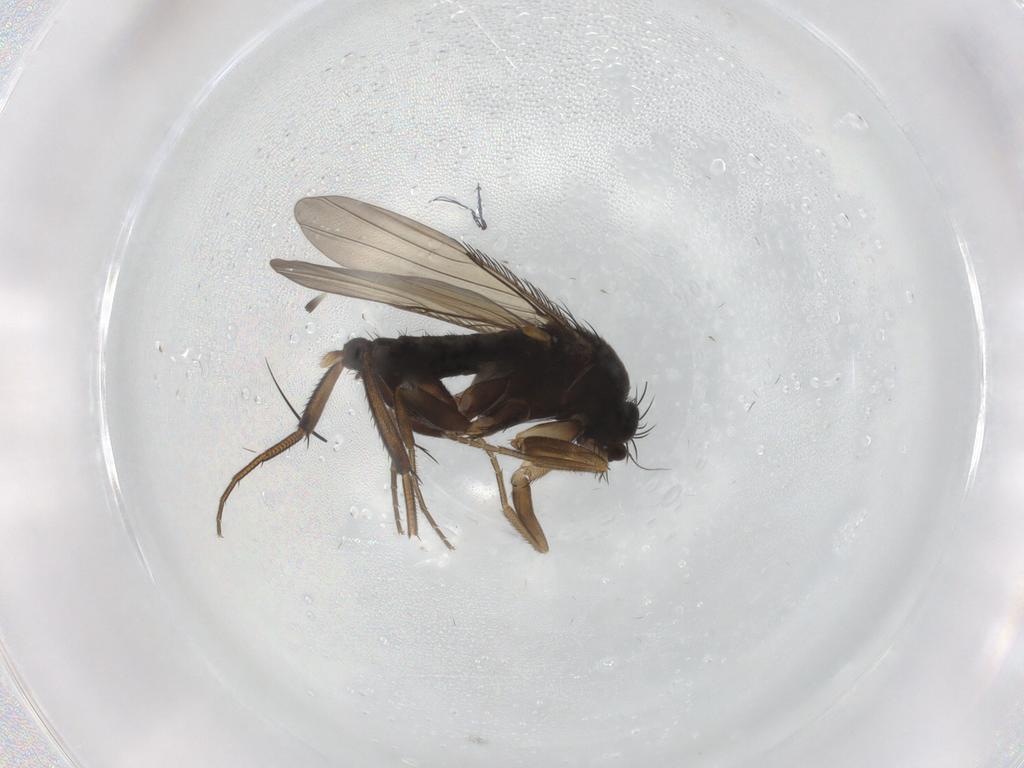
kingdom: Animalia
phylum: Arthropoda
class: Insecta
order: Diptera
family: Phoridae
